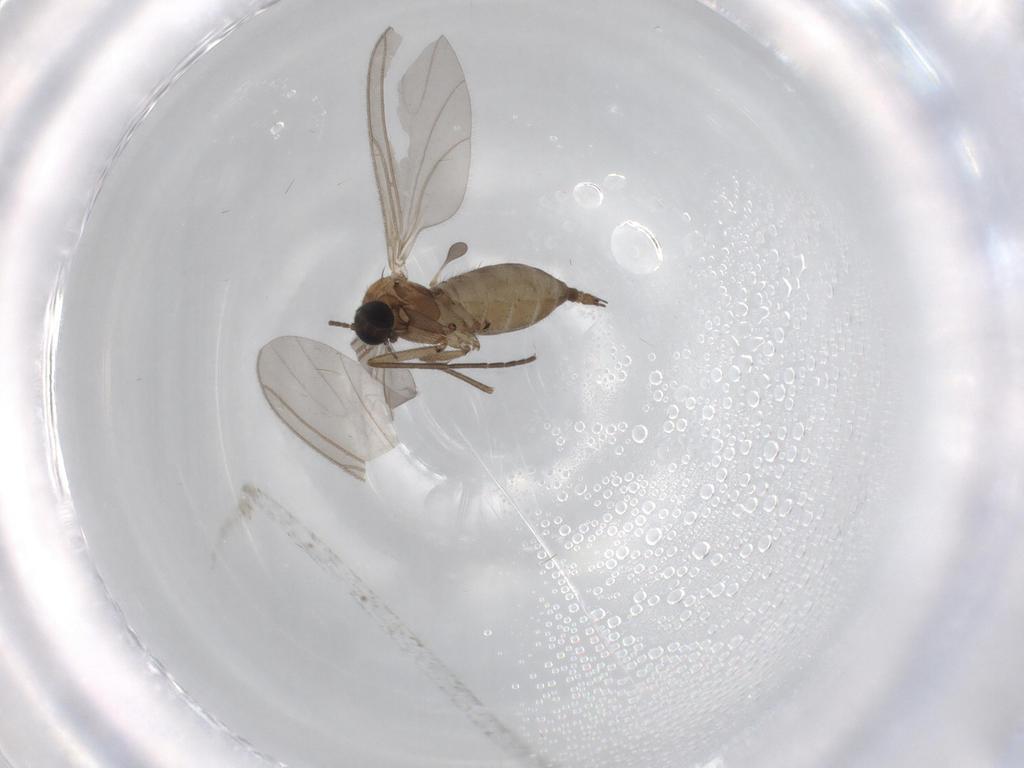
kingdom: Animalia
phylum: Arthropoda
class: Insecta
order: Diptera
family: Sciaridae
